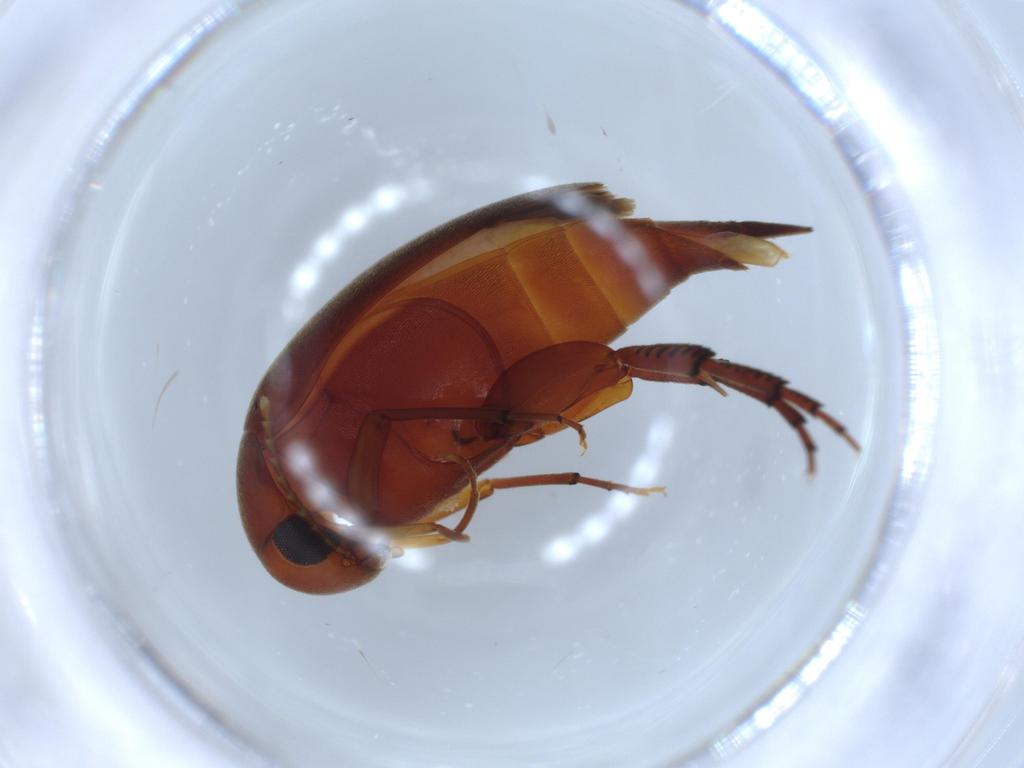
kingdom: Animalia
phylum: Arthropoda
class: Insecta
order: Coleoptera
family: Mordellidae
